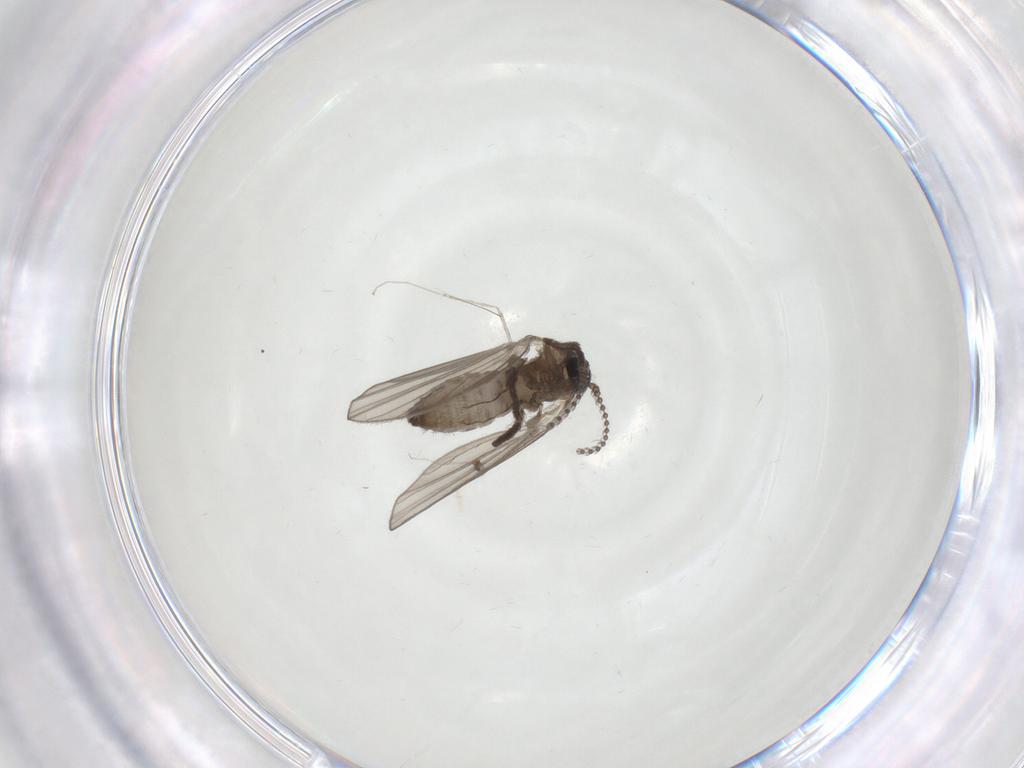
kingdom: Animalia
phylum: Arthropoda
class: Insecta
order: Diptera
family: Psychodidae
